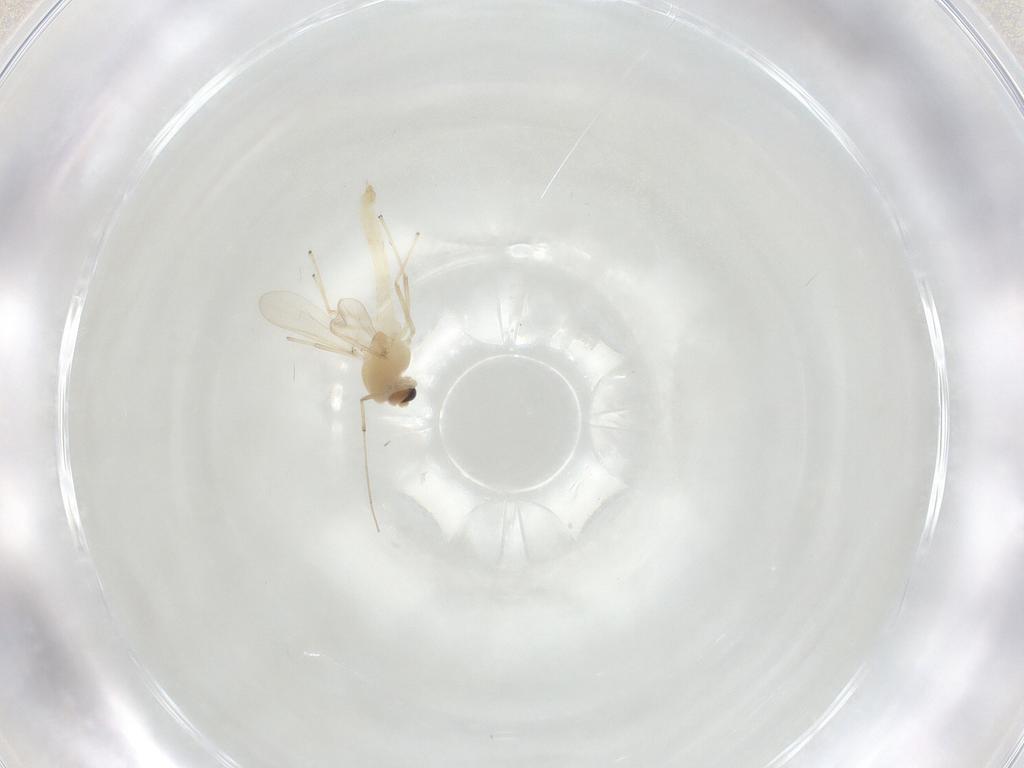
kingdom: Animalia
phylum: Arthropoda
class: Insecta
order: Diptera
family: Chironomidae
